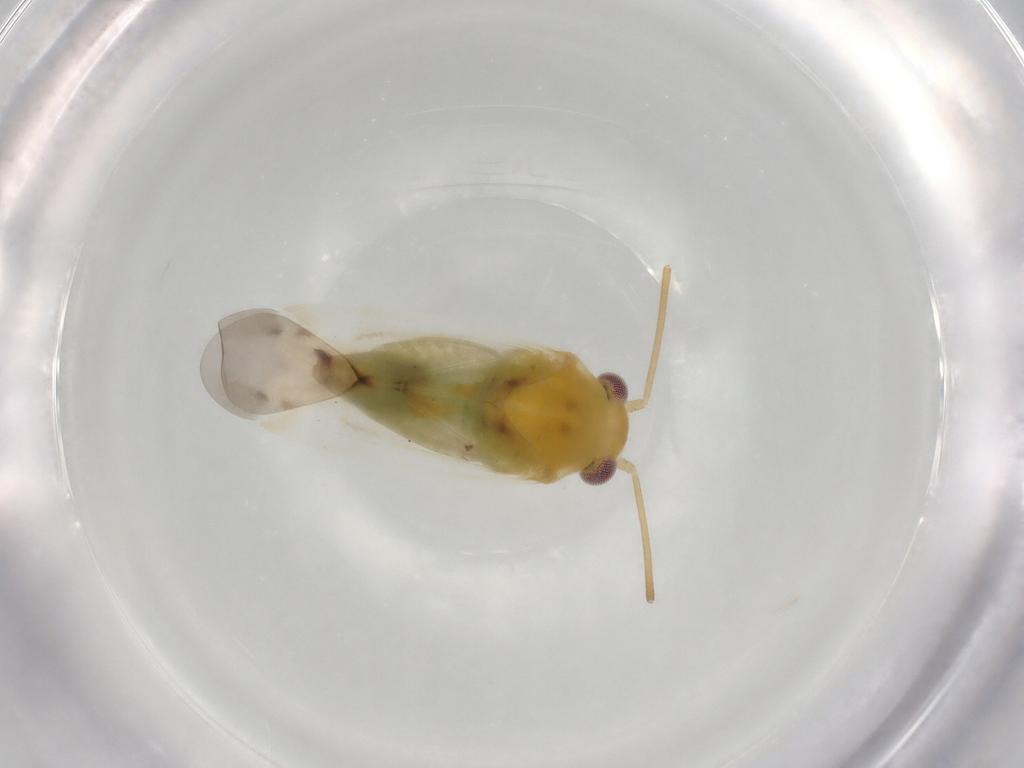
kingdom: Animalia
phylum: Arthropoda
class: Insecta
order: Hemiptera
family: Miridae
